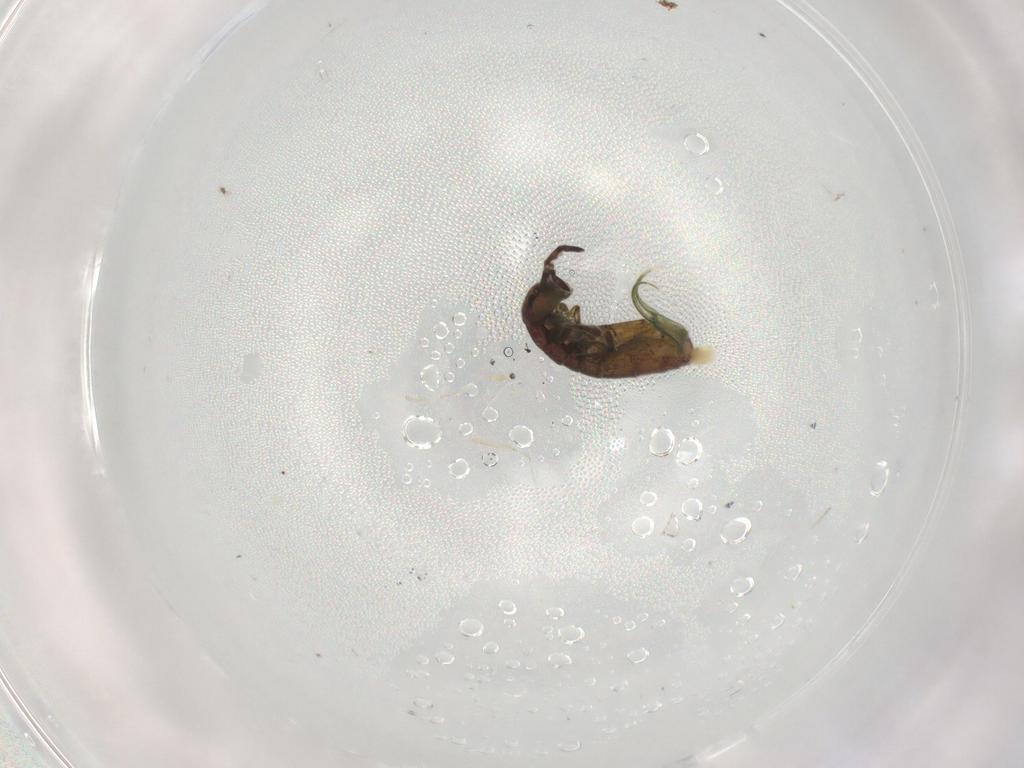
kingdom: Animalia
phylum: Arthropoda
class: Collembola
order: Entomobryomorpha
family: Isotomidae
